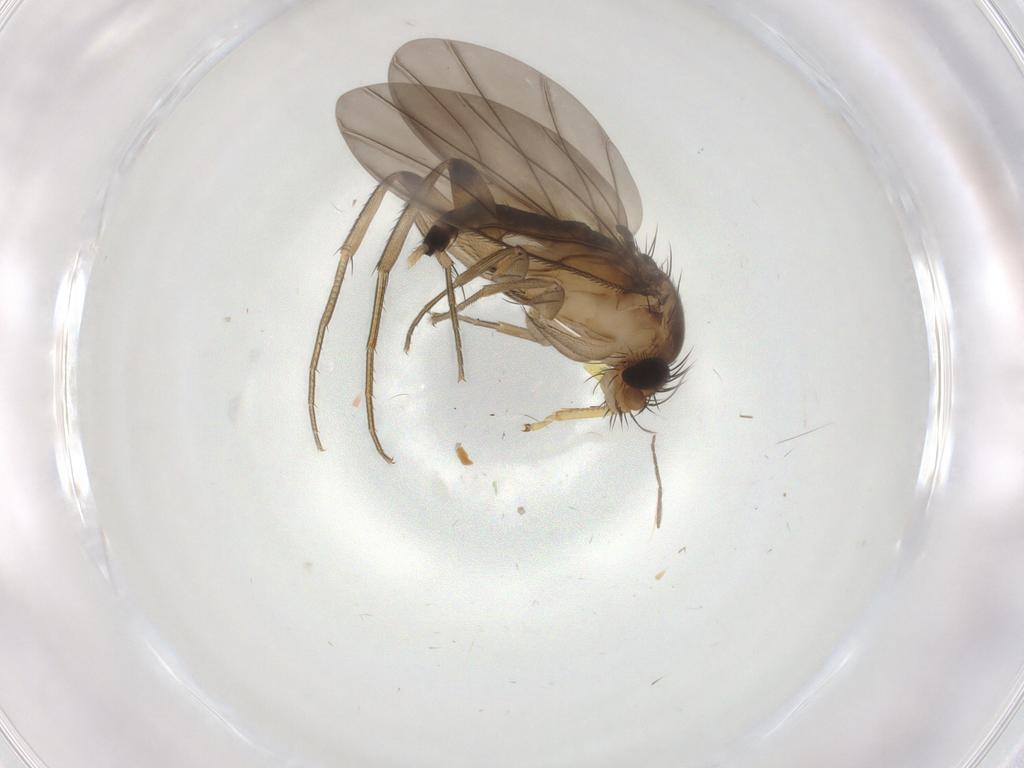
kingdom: Animalia
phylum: Arthropoda
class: Insecta
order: Diptera
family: Phoridae
